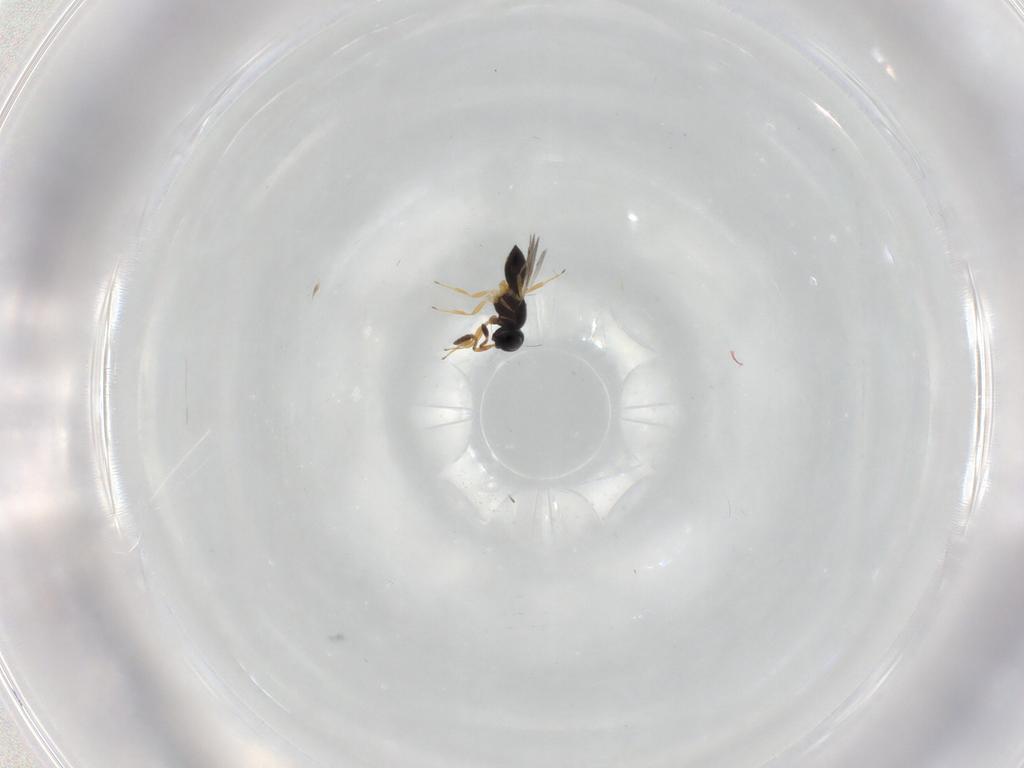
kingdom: Animalia
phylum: Arthropoda
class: Insecta
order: Hymenoptera
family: Scelionidae
